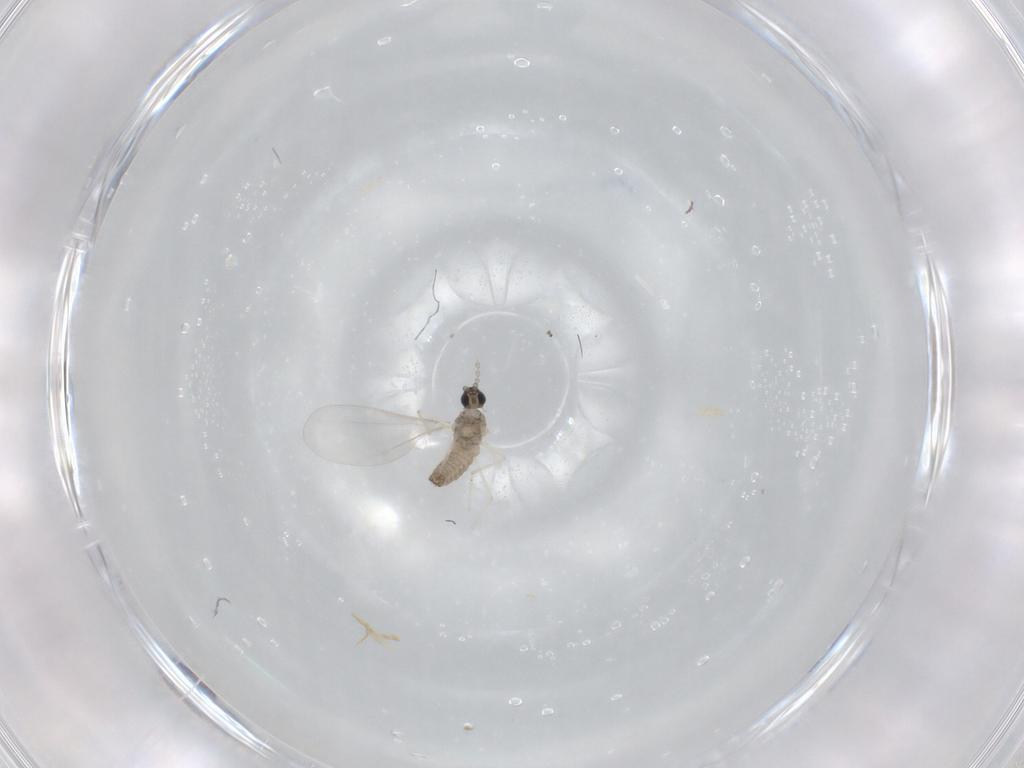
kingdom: Animalia
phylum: Arthropoda
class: Insecta
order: Diptera
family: Cecidomyiidae
